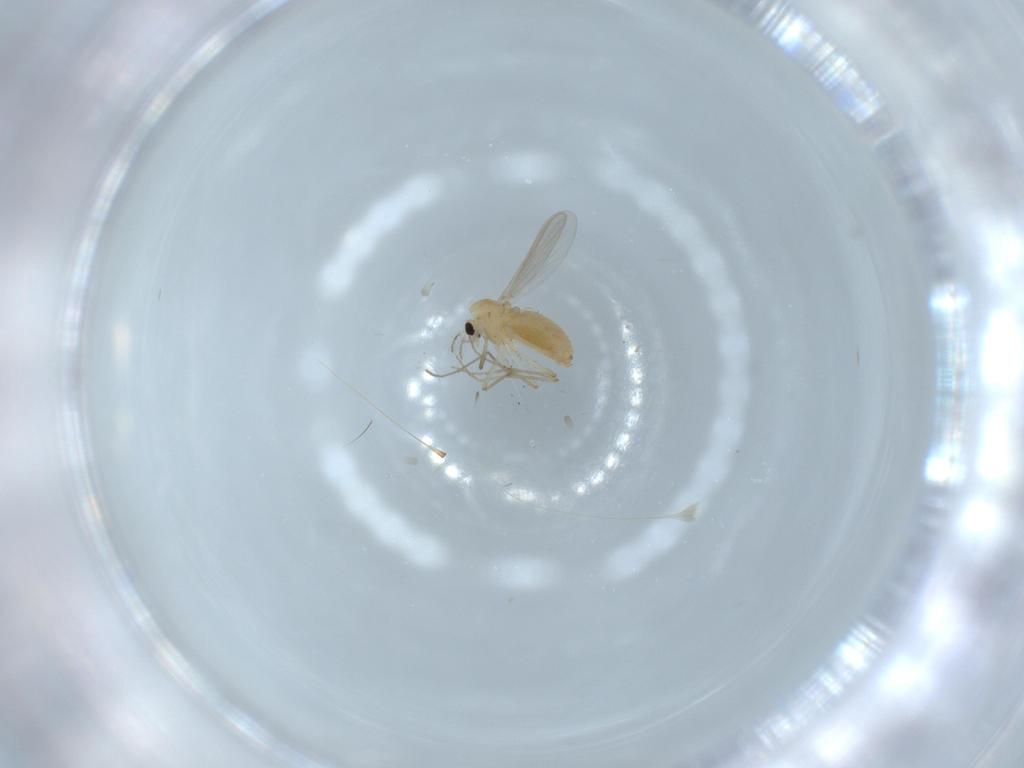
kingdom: Animalia
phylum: Arthropoda
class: Insecta
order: Diptera
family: Chironomidae
